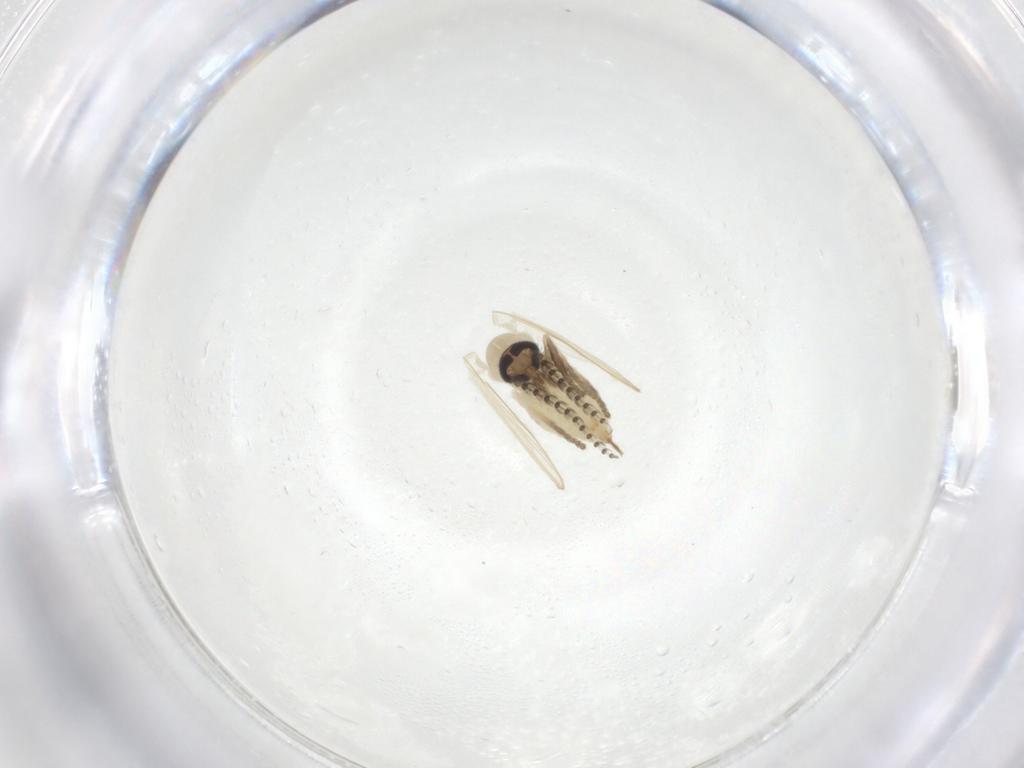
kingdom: Animalia
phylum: Arthropoda
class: Insecta
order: Diptera
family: Psychodidae
